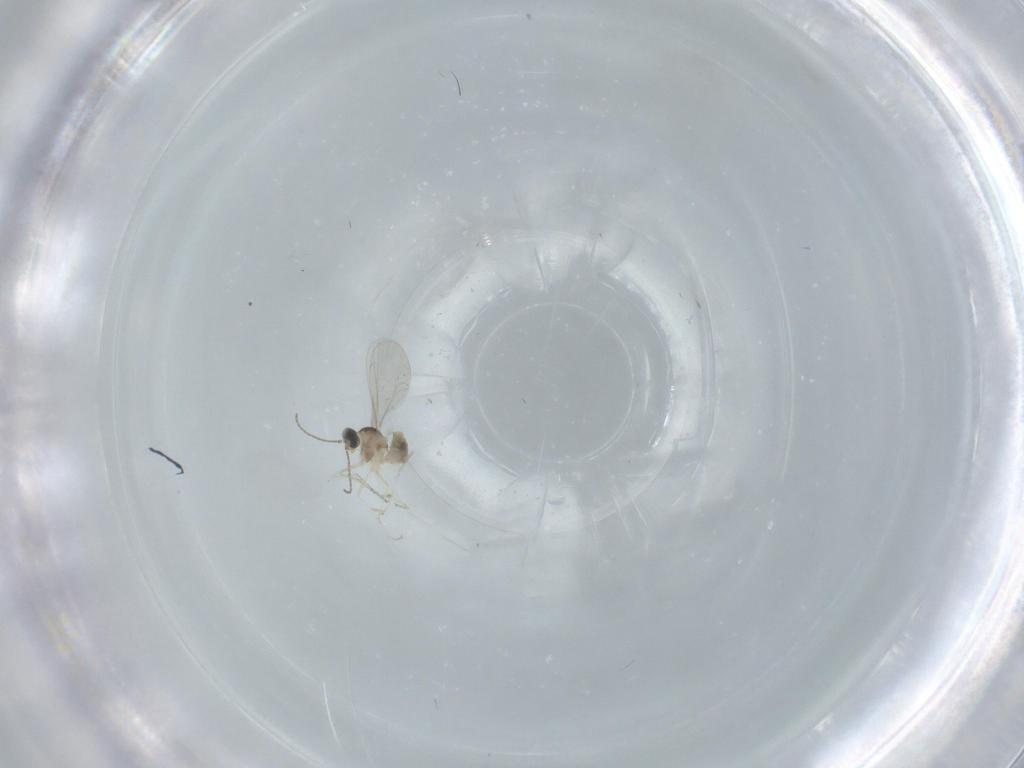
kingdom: Animalia
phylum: Arthropoda
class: Insecta
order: Diptera
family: Cecidomyiidae
